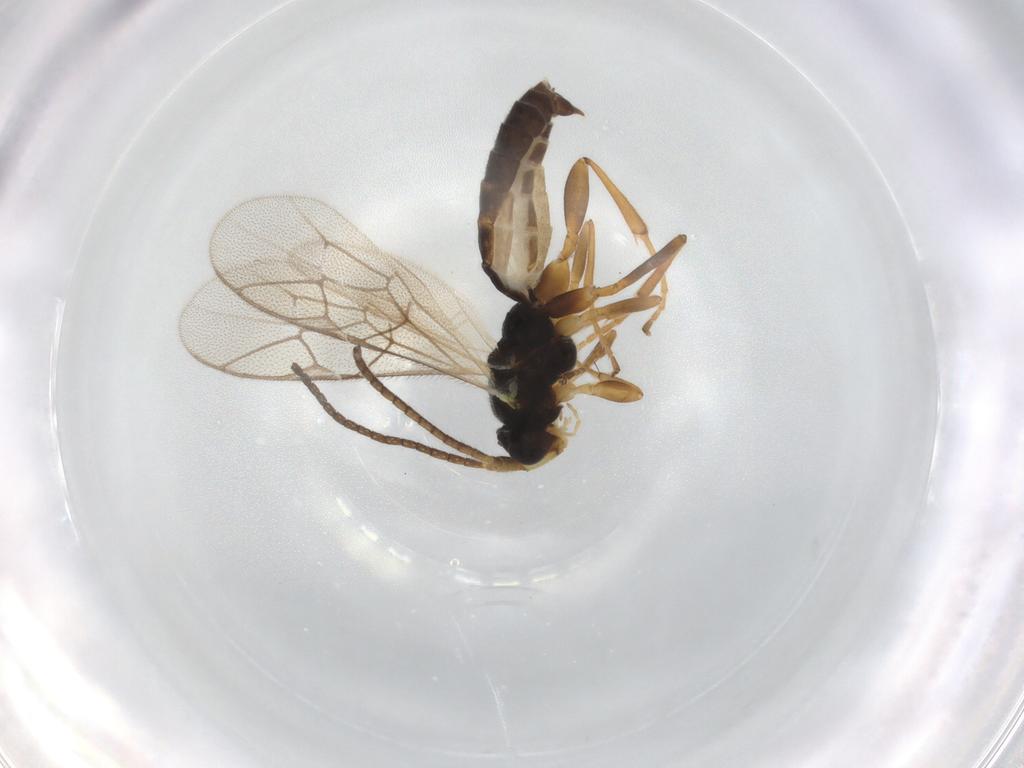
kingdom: Animalia
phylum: Arthropoda
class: Insecta
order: Hymenoptera
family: Ichneumonidae
